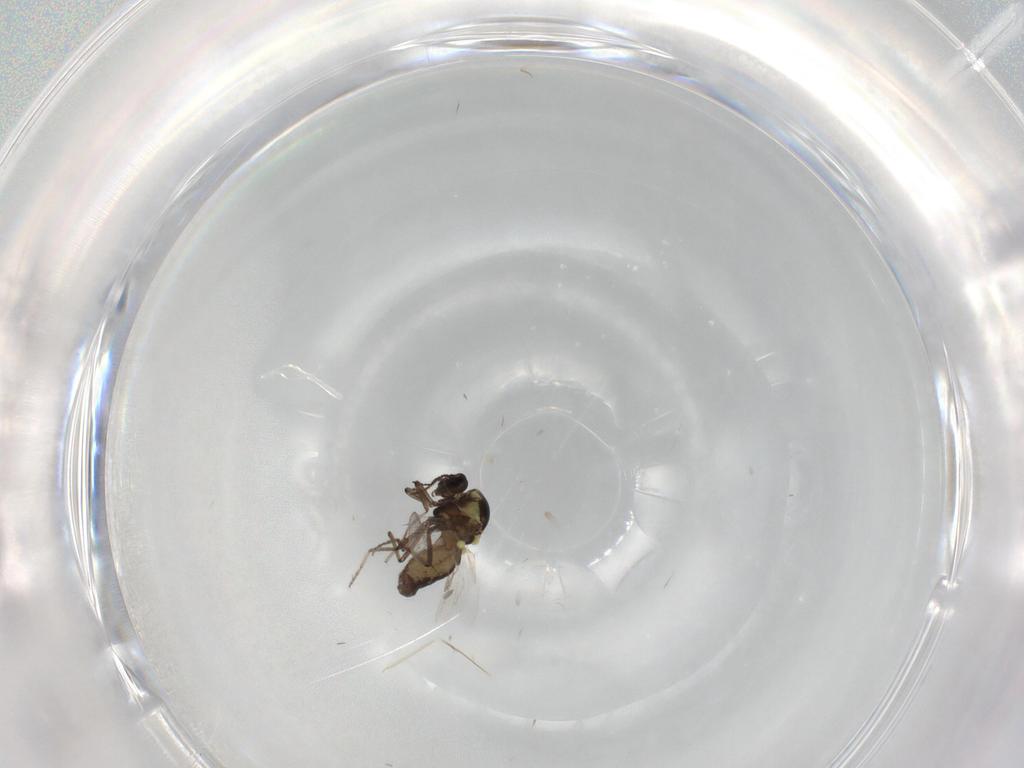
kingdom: Animalia
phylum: Arthropoda
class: Insecta
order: Diptera
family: Ceratopogonidae
